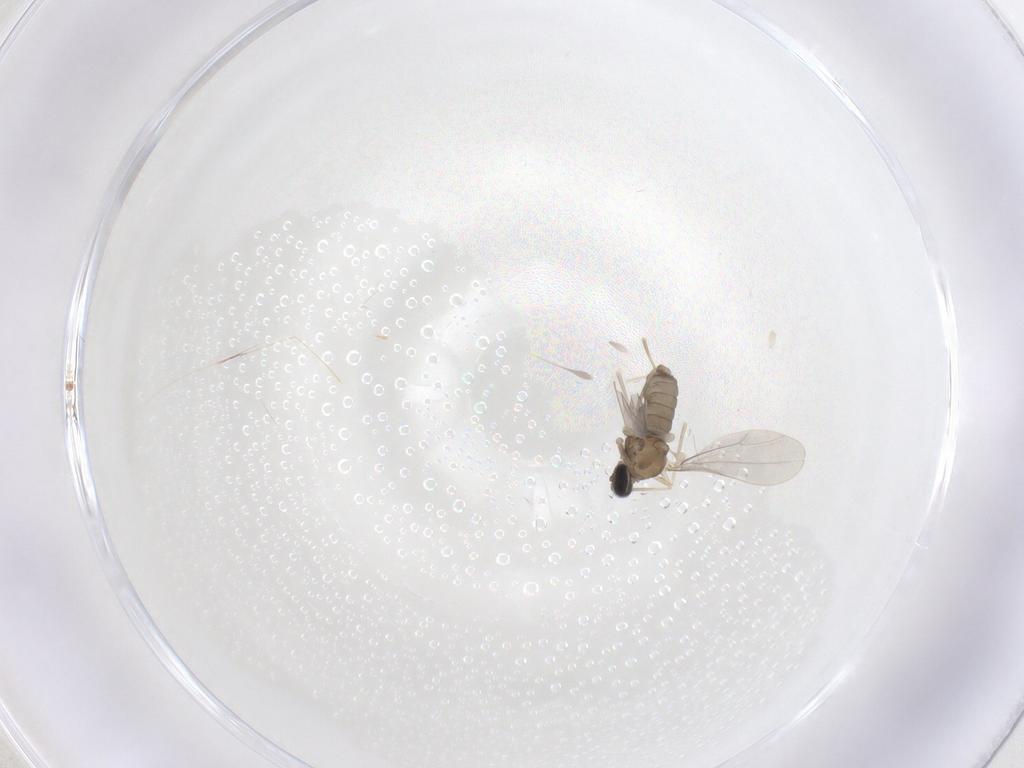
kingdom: Animalia
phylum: Arthropoda
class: Insecta
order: Diptera
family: Cecidomyiidae
